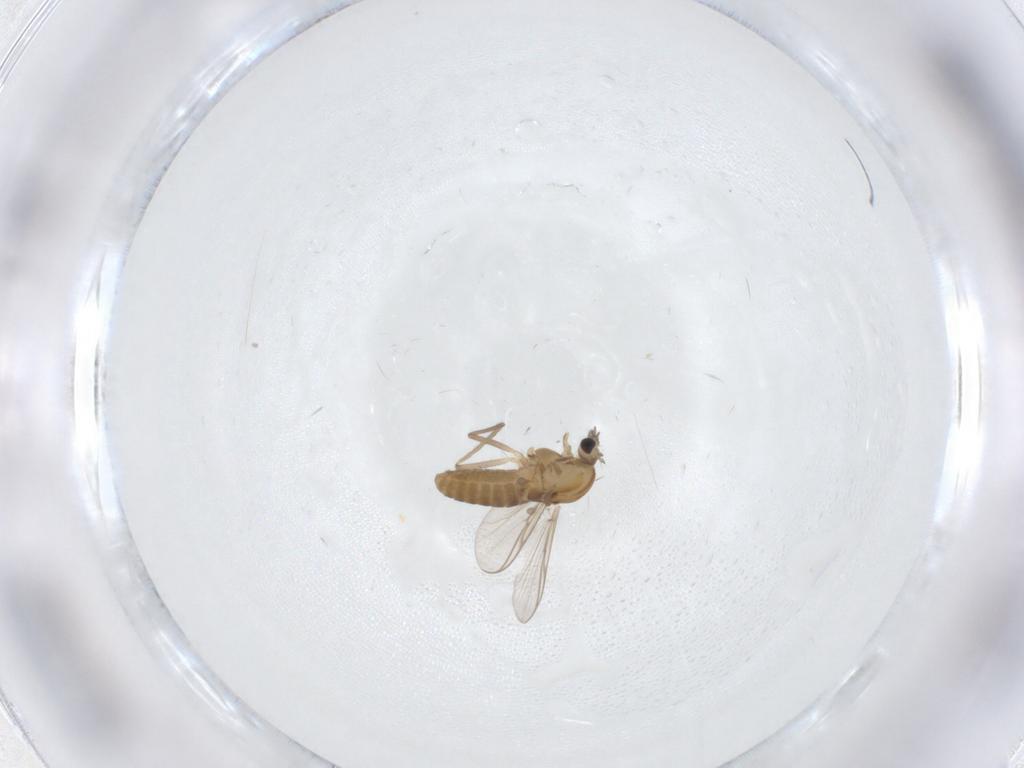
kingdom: Animalia
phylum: Arthropoda
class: Insecta
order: Diptera
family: Chironomidae
